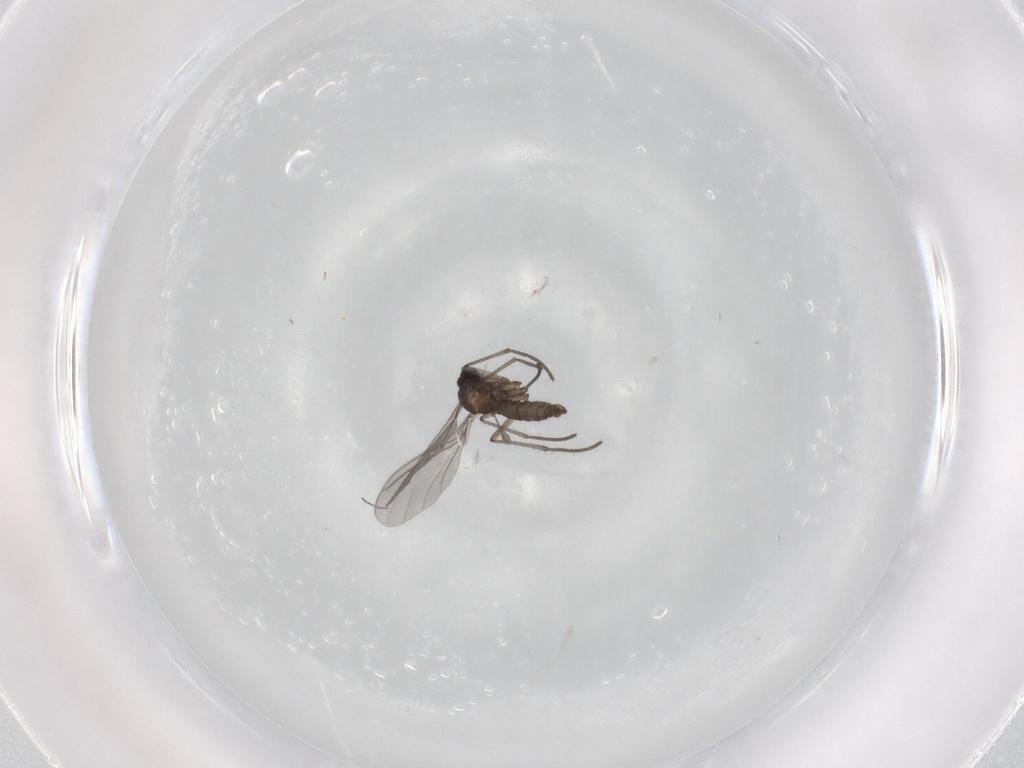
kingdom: Animalia
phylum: Arthropoda
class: Insecta
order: Diptera
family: Sciaridae
